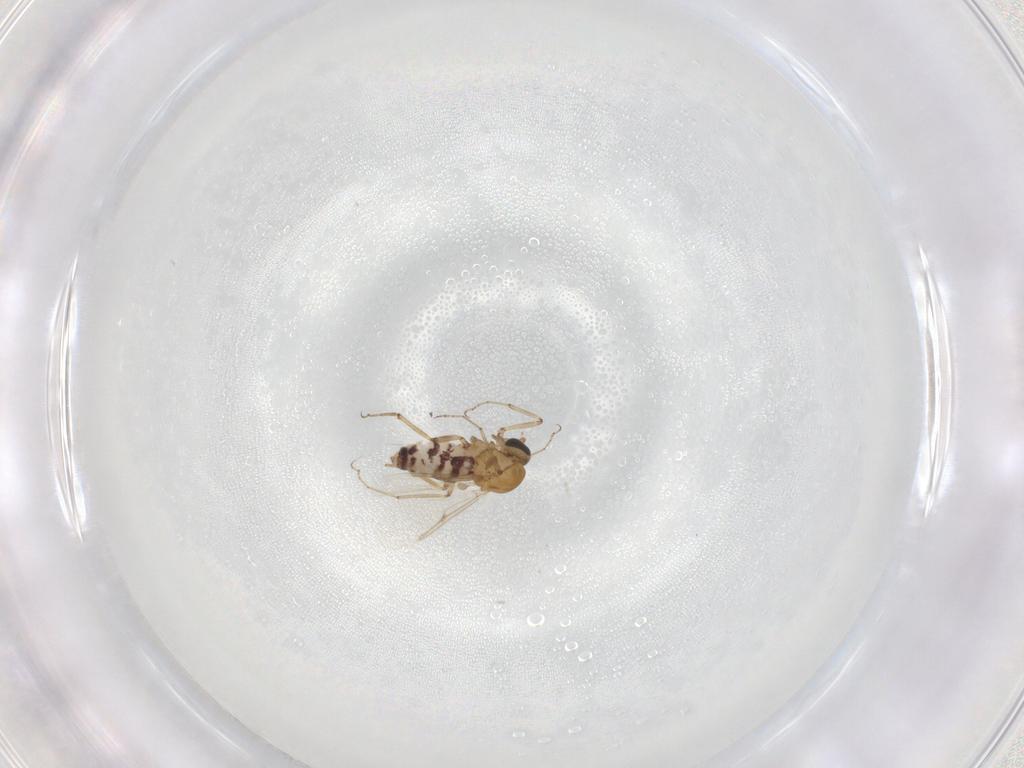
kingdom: Animalia
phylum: Arthropoda
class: Insecta
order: Diptera
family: Ceratopogonidae
